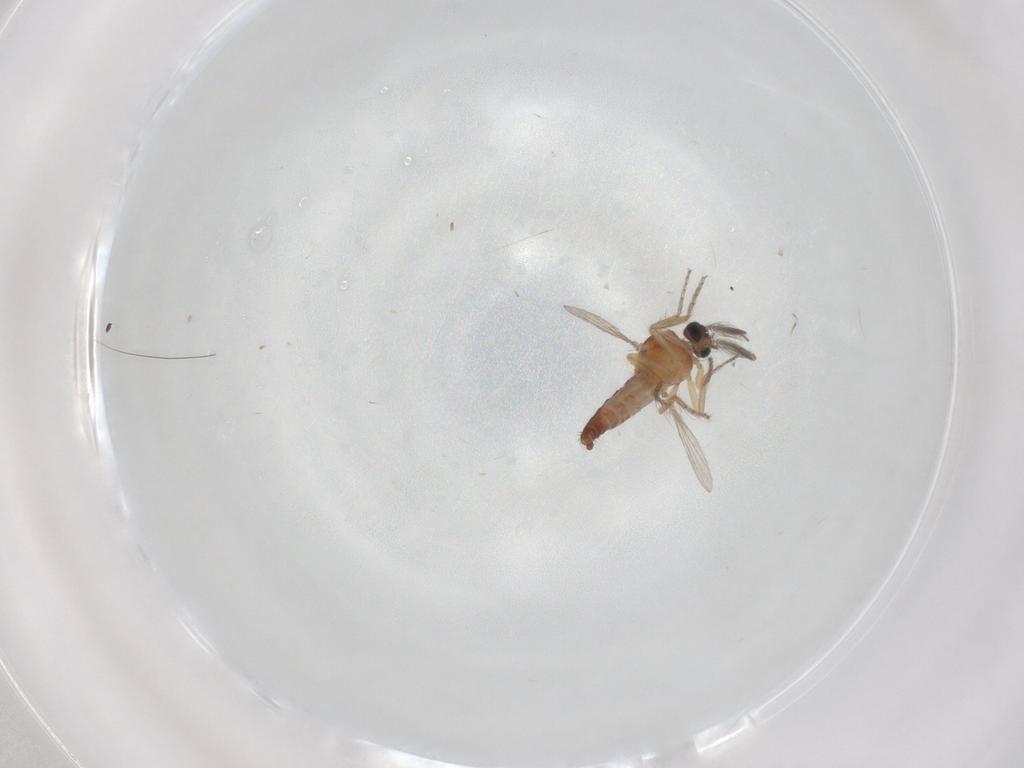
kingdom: Animalia
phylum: Arthropoda
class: Insecta
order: Diptera
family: Ceratopogonidae
